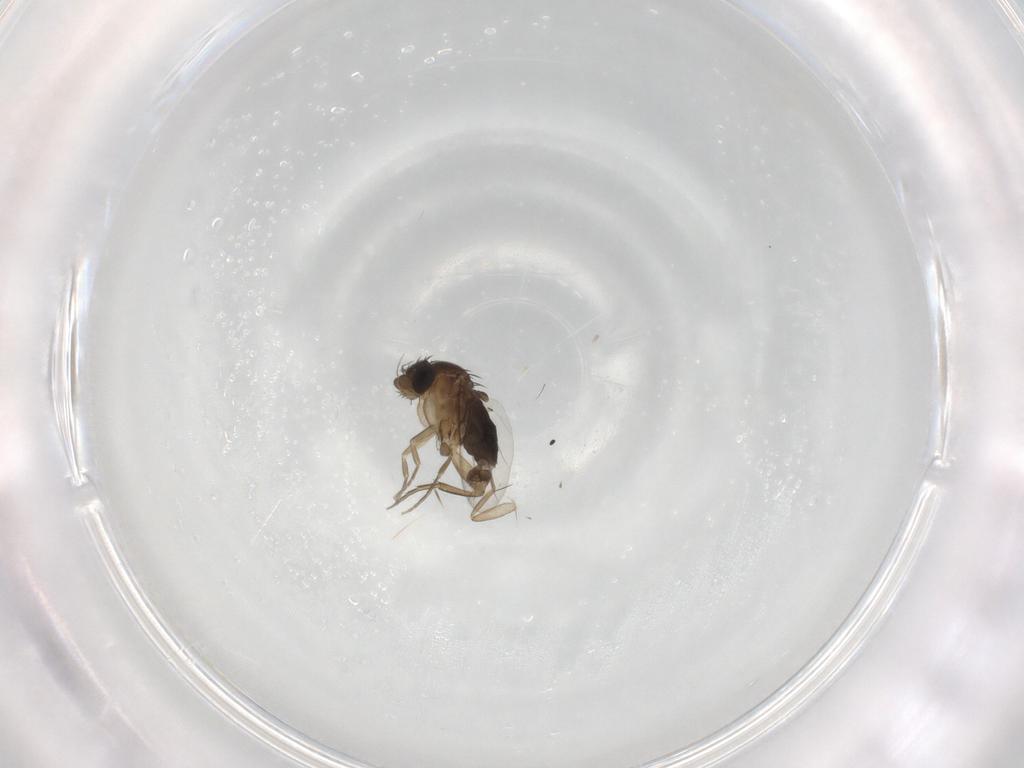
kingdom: Animalia
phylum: Arthropoda
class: Insecta
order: Diptera
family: Phoridae
